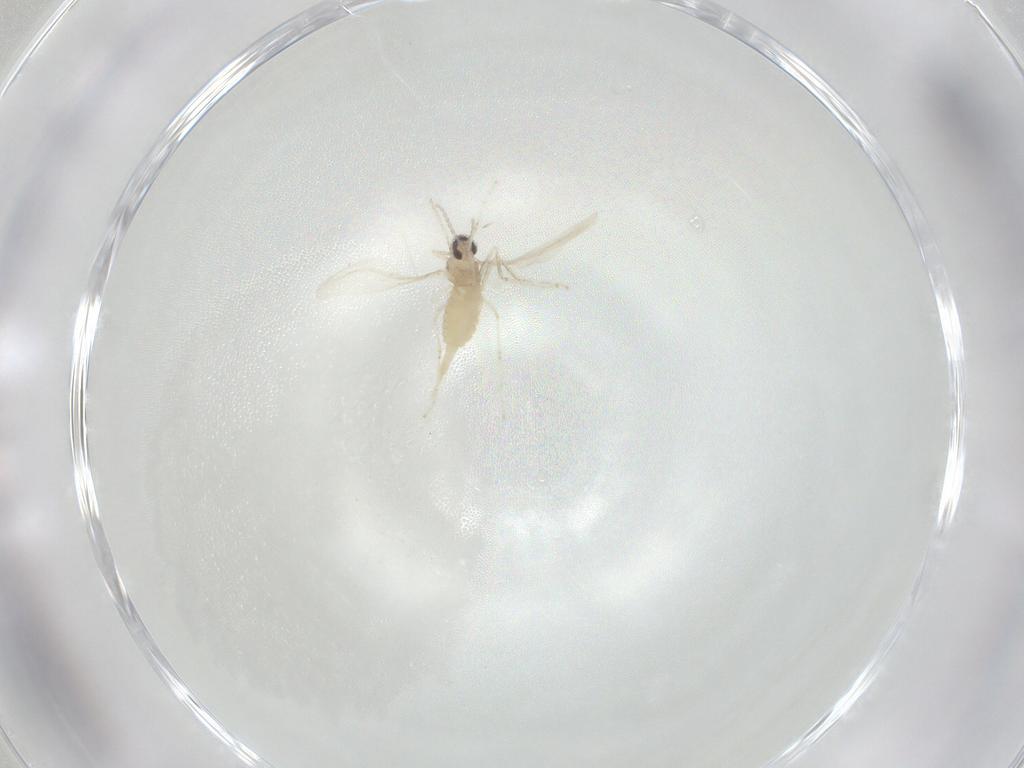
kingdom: Animalia
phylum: Arthropoda
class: Insecta
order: Diptera
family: Cecidomyiidae
